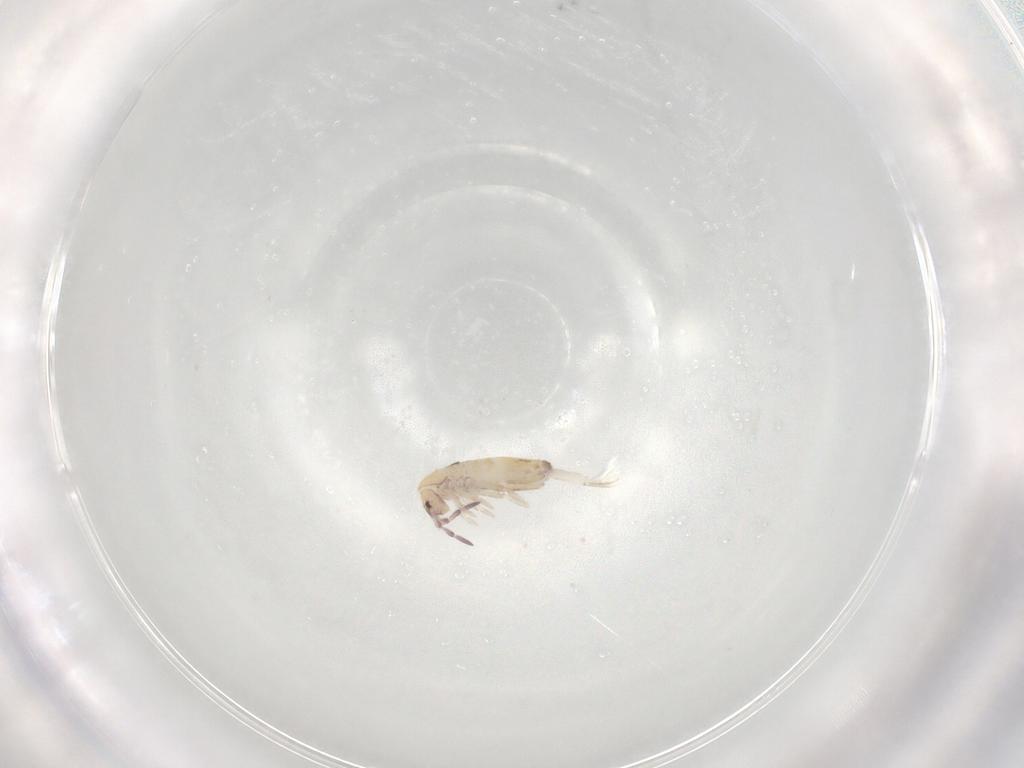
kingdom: Animalia
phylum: Arthropoda
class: Collembola
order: Entomobryomorpha
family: Entomobryidae
